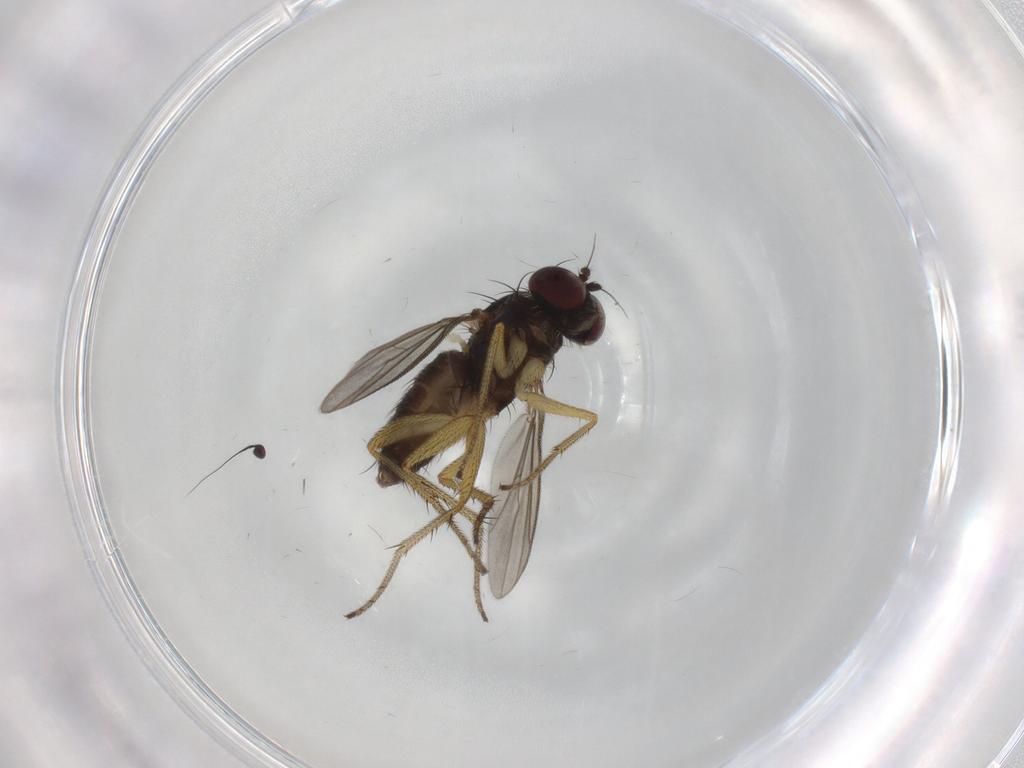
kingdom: Animalia
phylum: Arthropoda
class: Insecta
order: Diptera
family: Dolichopodidae
